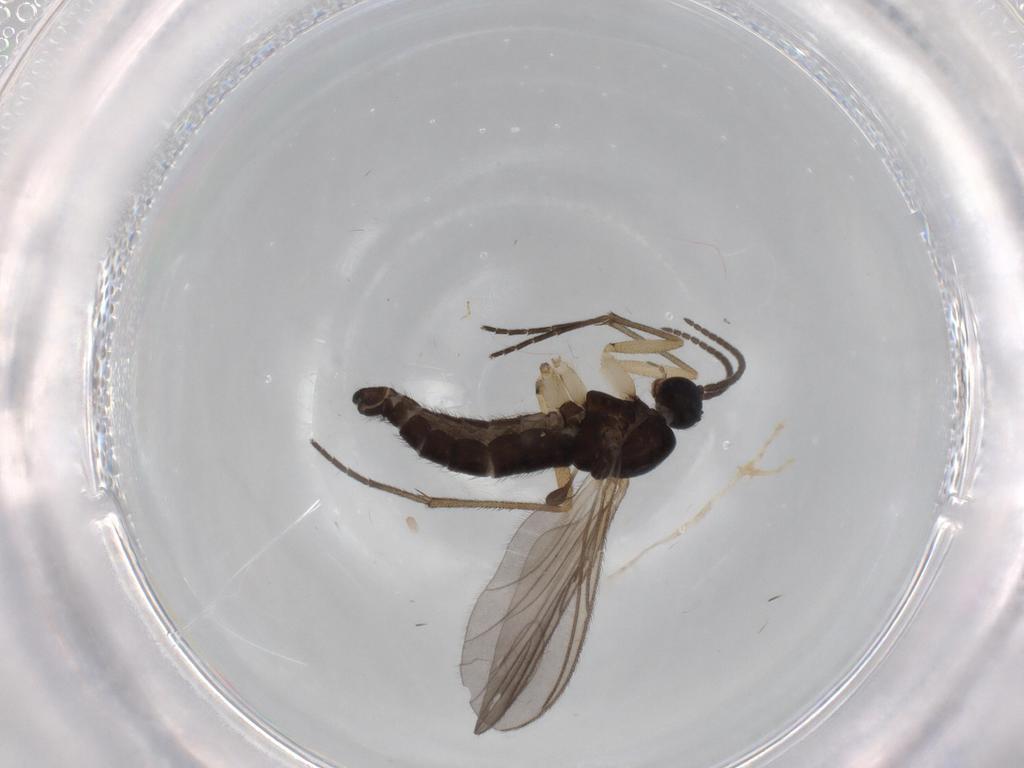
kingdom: Animalia
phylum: Arthropoda
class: Insecta
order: Diptera
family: Sciaridae
